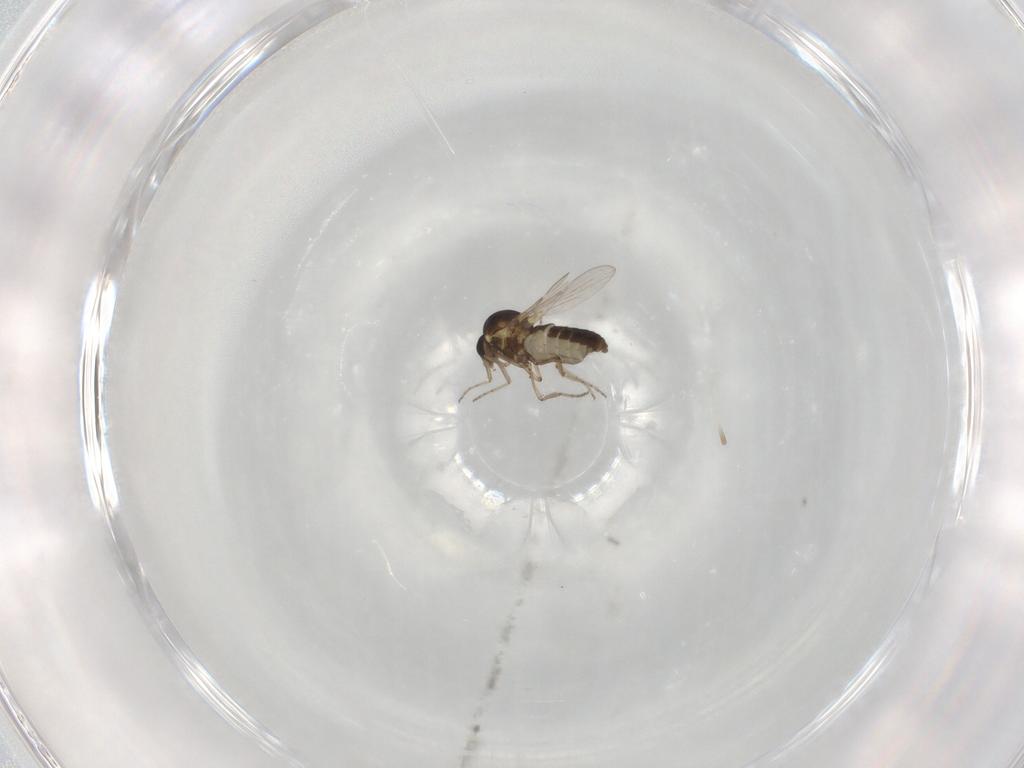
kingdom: Animalia
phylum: Arthropoda
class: Insecta
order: Diptera
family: Ceratopogonidae
